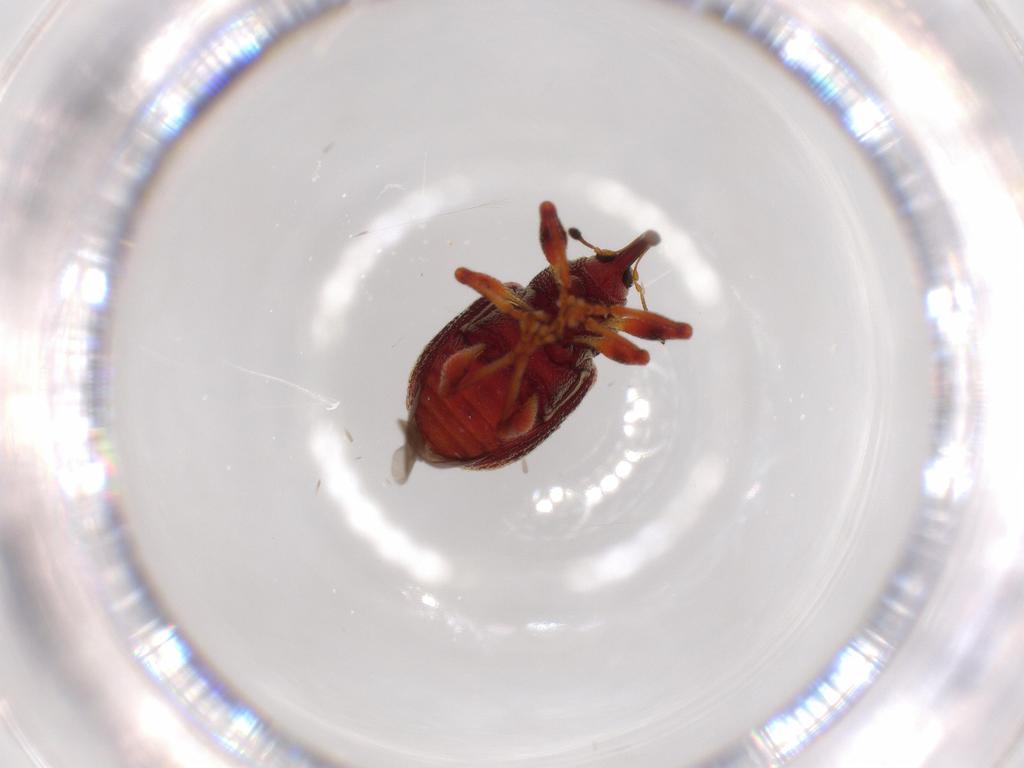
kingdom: Animalia
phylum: Arthropoda
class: Insecta
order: Coleoptera
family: Curculionidae
